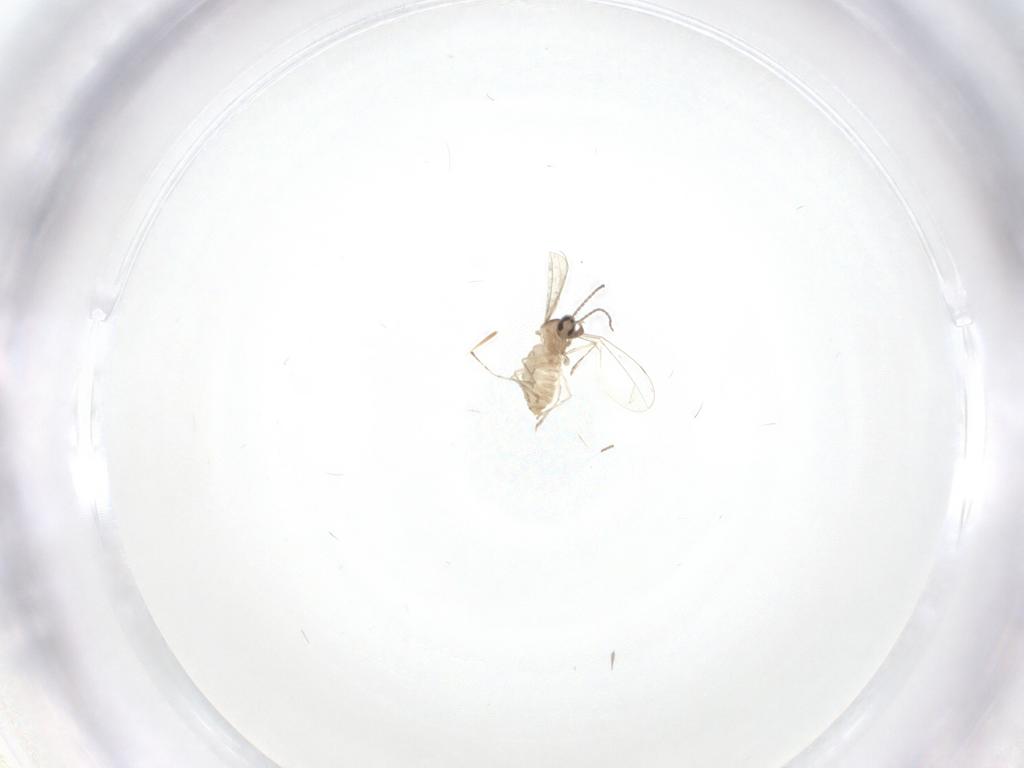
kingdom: Animalia
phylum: Arthropoda
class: Insecta
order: Diptera
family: Cecidomyiidae
